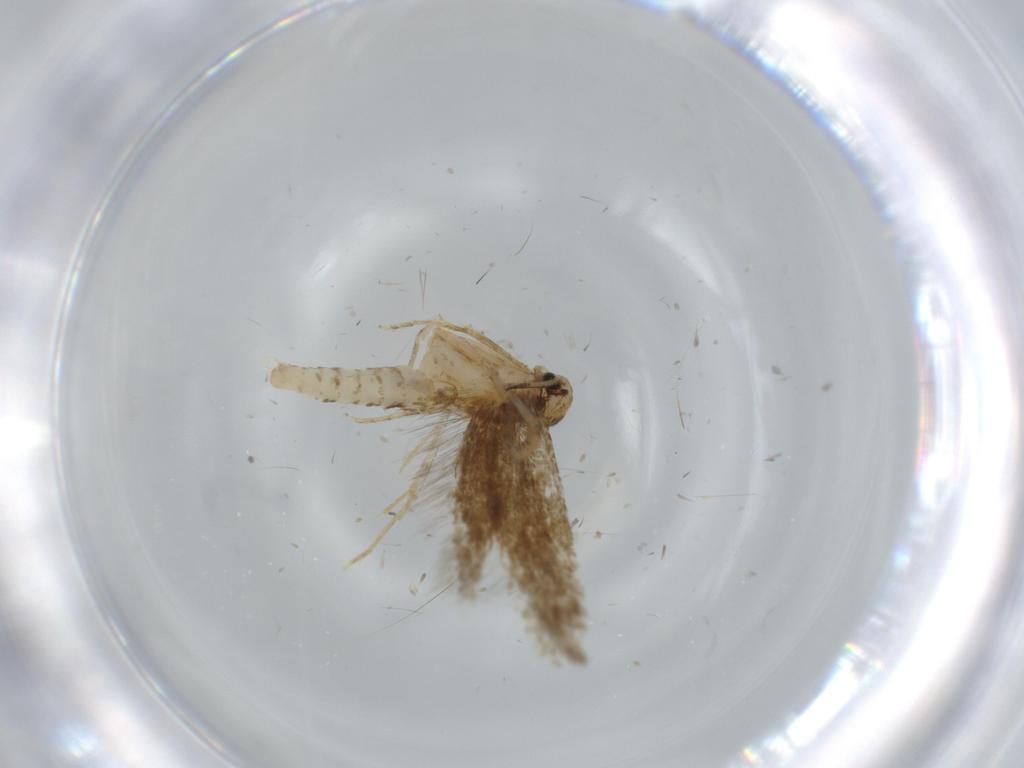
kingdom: Animalia
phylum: Arthropoda
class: Insecta
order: Lepidoptera
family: Tineidae
